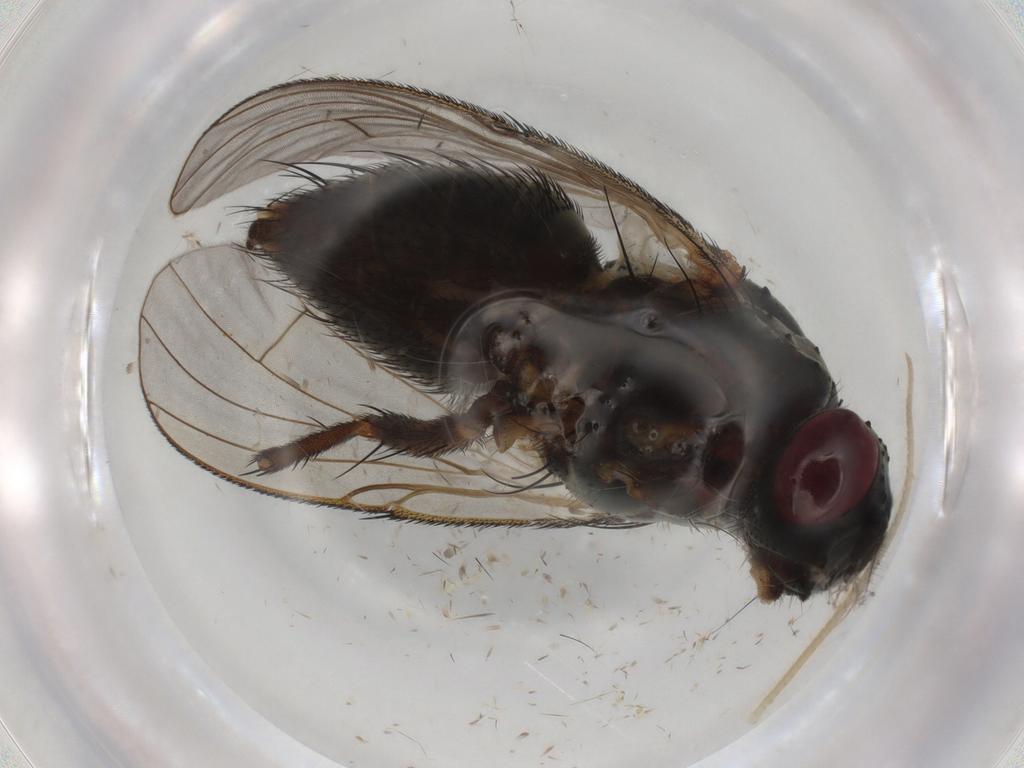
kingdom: Animalia
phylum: Arthropoda
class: Insecta
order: Diptera
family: Muscidae
